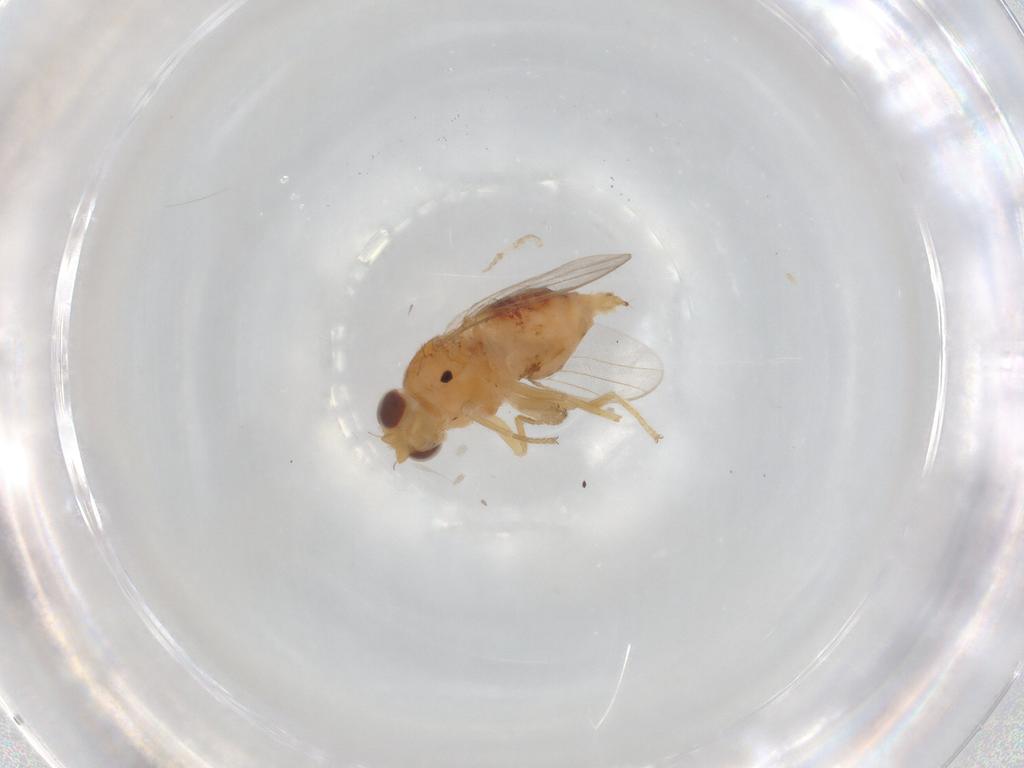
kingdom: Animalia
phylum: Arthropoda
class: Insecta
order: Diptera
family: Chloropidae
